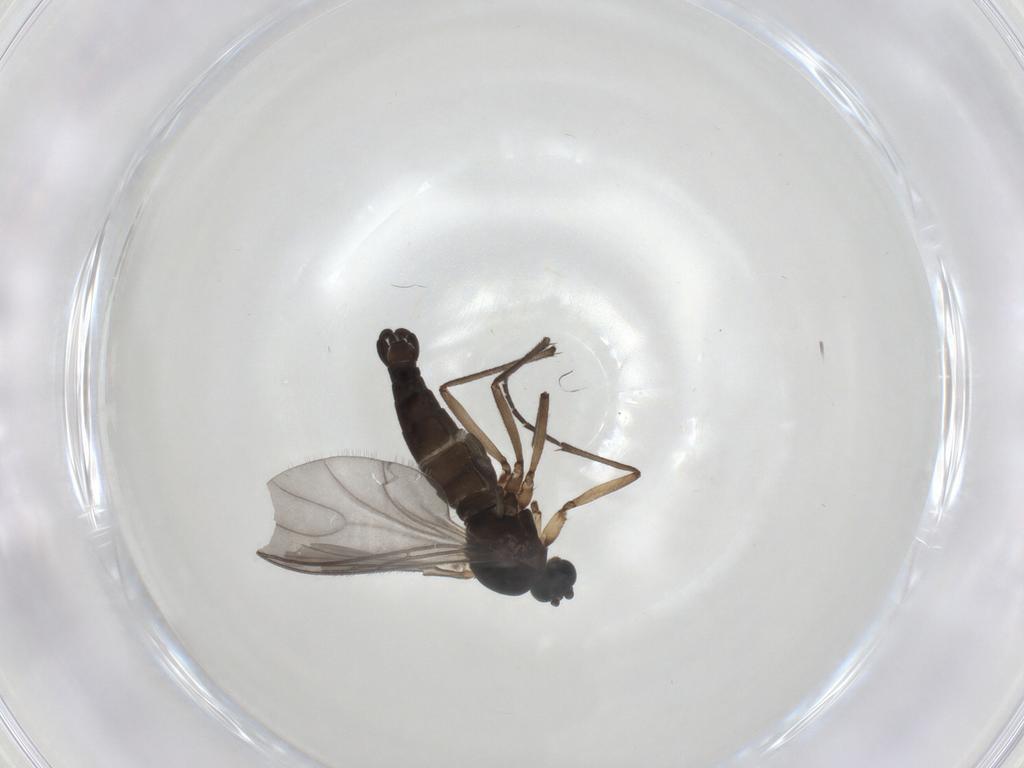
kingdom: Animalia
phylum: Arthropoda
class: Insecta
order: Diptera
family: Sciaridae
